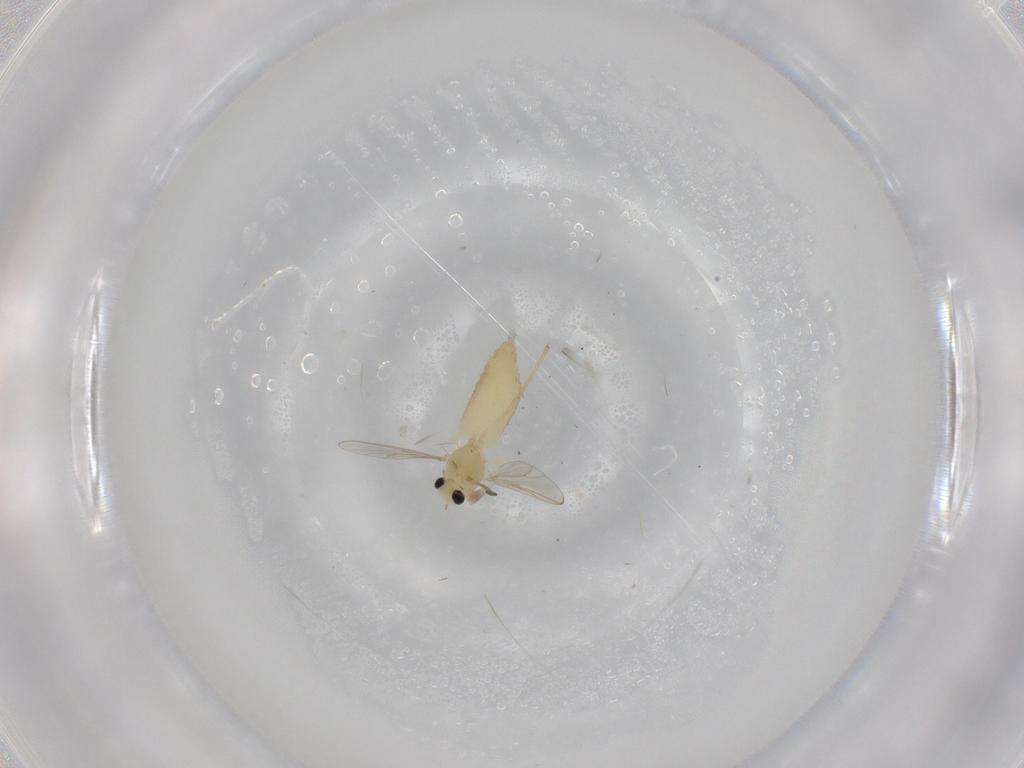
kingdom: Animalia
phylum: Arthropoda
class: Insecta
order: Diptera
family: Chironomidae
